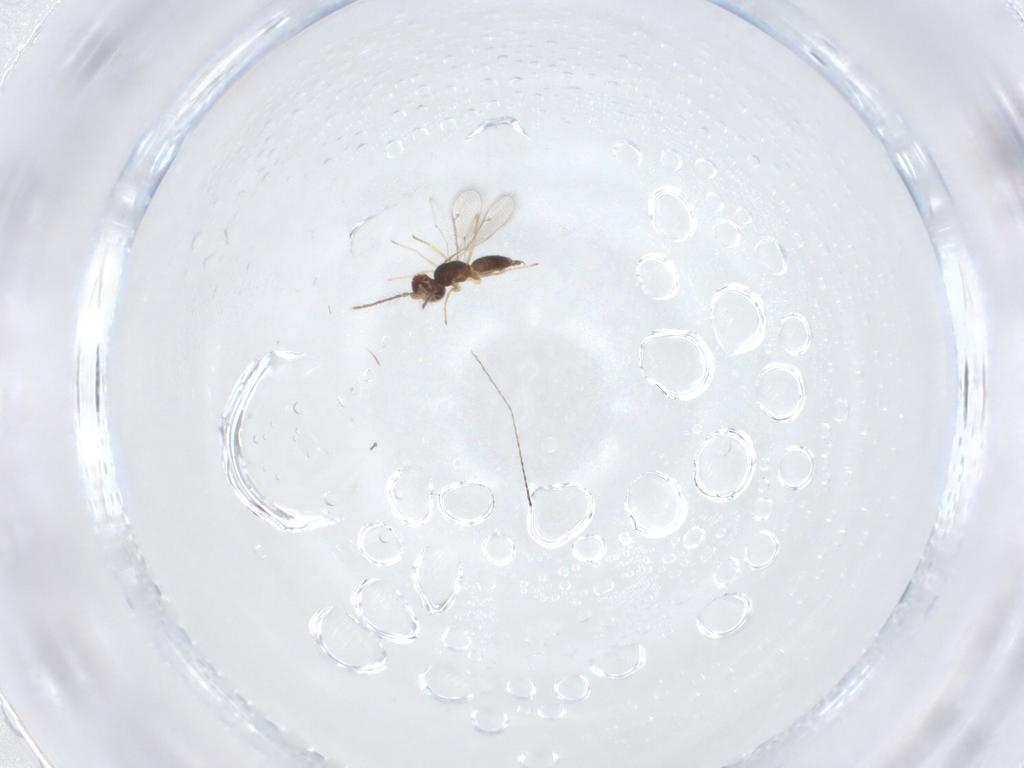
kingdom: Animalia
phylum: Arthropoda
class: Insecta
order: Hymenoptera
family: Eulophidae
